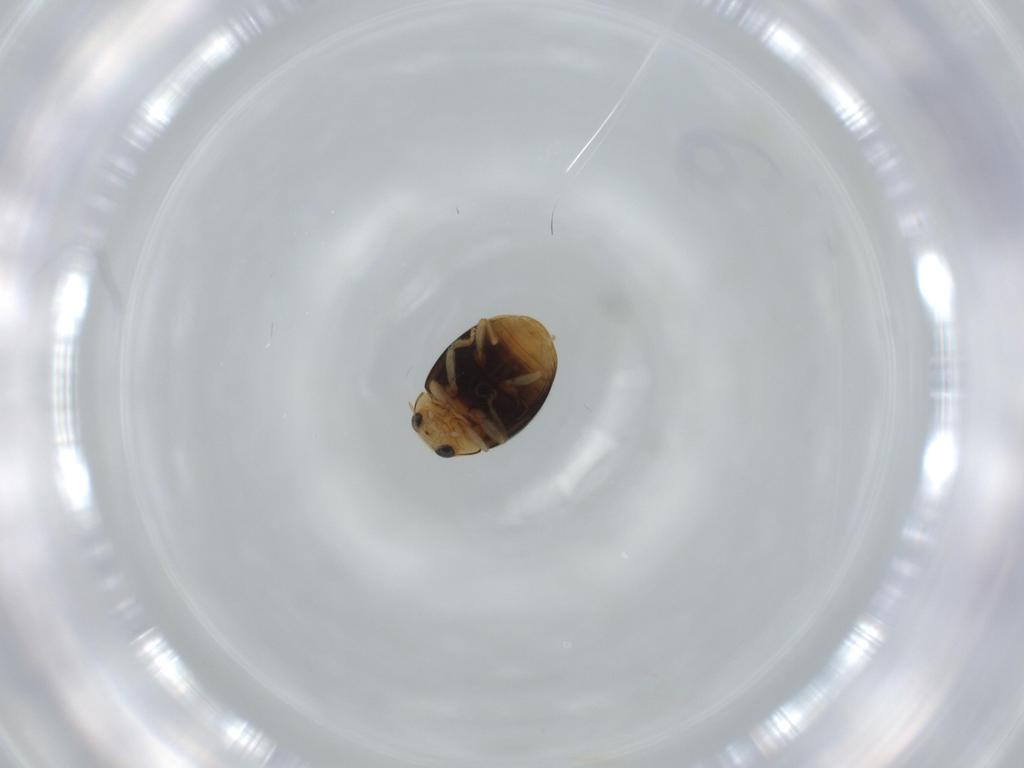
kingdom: Animalia
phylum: Arthropoda
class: Insecta
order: Coleoptera
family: Coccinellidae
